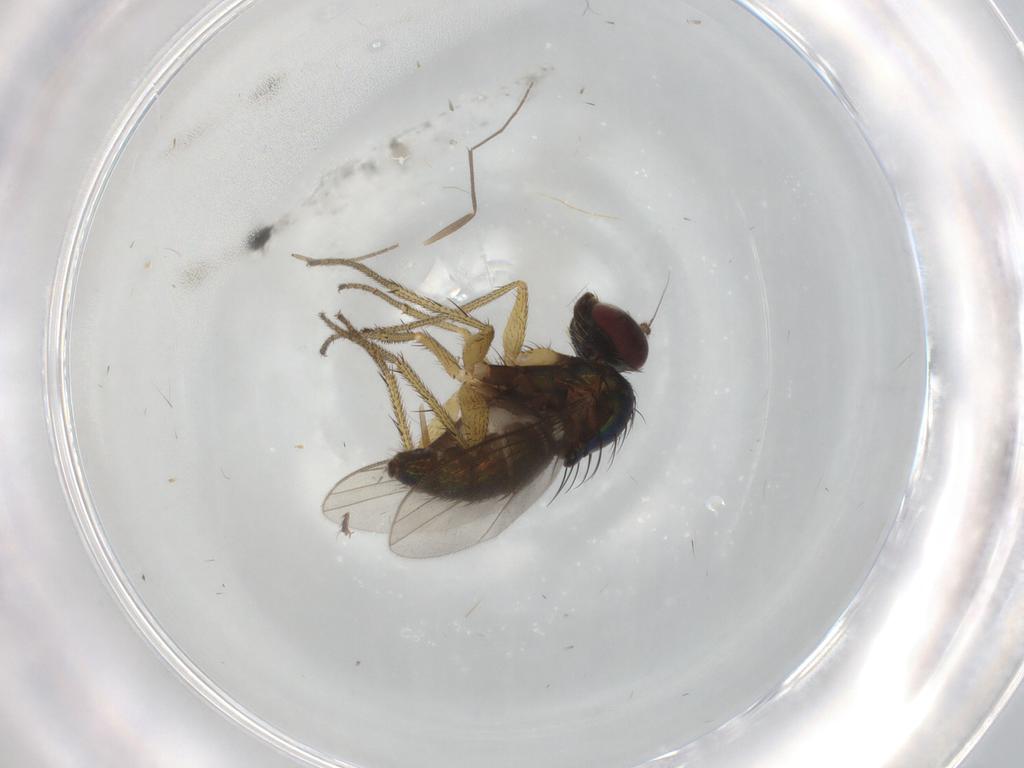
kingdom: Animalia
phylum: Arthropoda
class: Insecta
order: Diptera
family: Chironomidae
